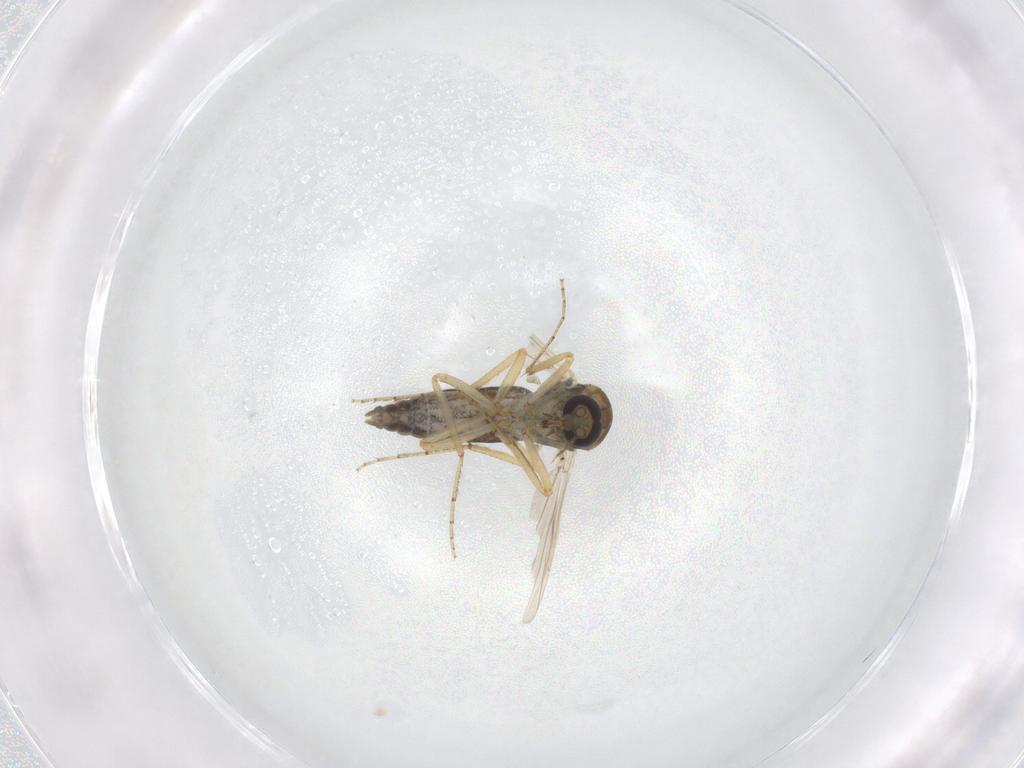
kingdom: Animalia
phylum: Arthropoda
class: Insecta
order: Diptera
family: Ceratopogonidae
